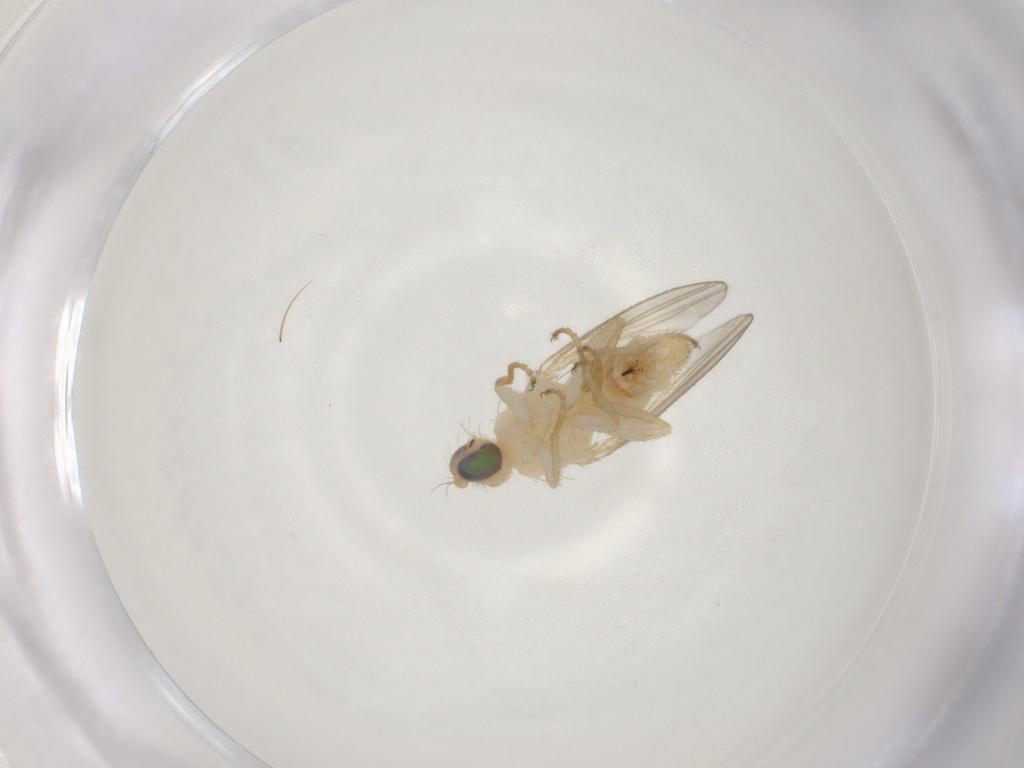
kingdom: Animalia
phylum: Arthropoda
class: Insecta
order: Diptera
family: Chyromyidae
